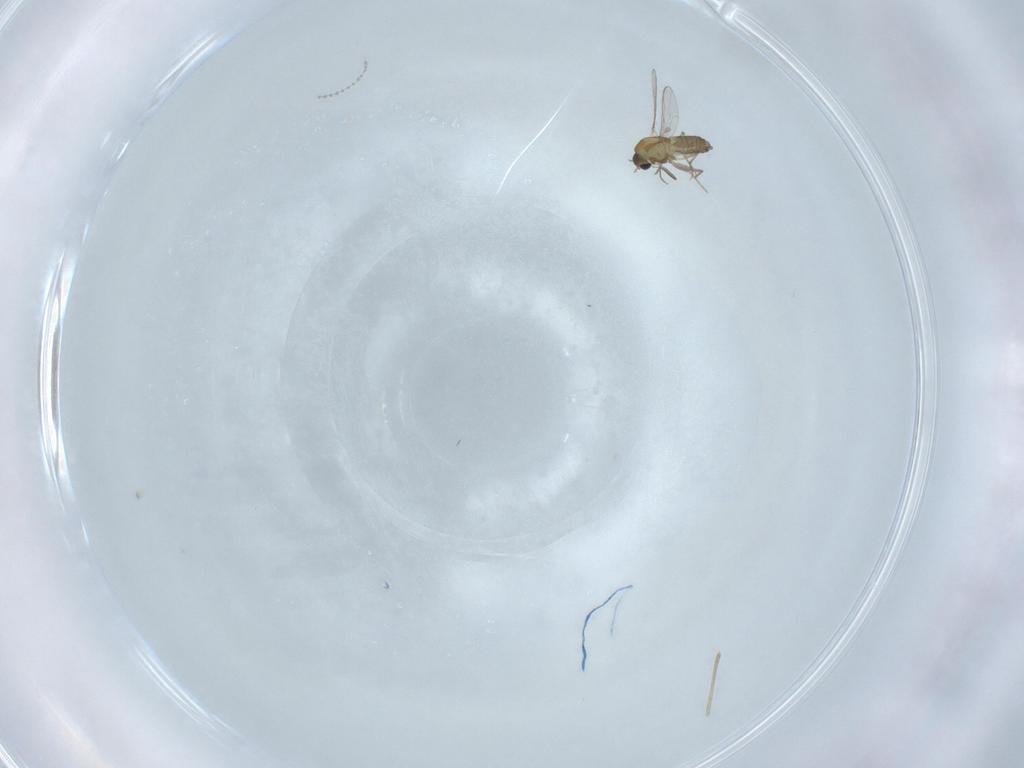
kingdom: Animalia
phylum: Arthropoda
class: Insecta
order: Diptera
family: Chironomidae
